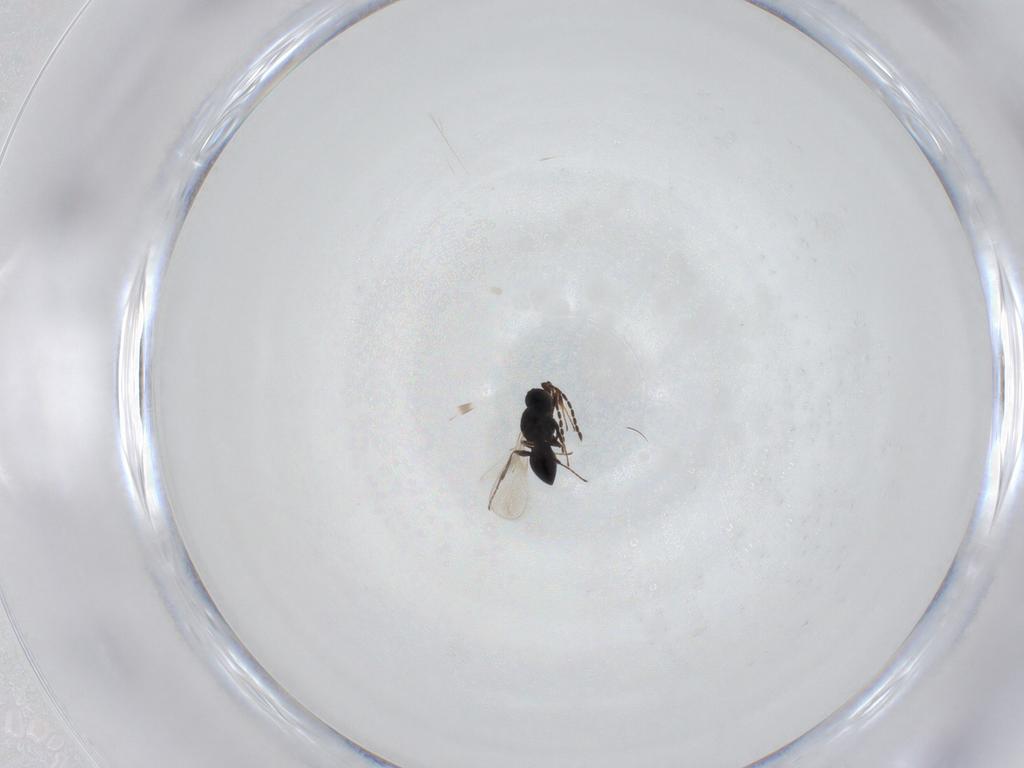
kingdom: Animalia
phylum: Arthropoda
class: Insecta
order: Hymenoptera
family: Platygastridae
